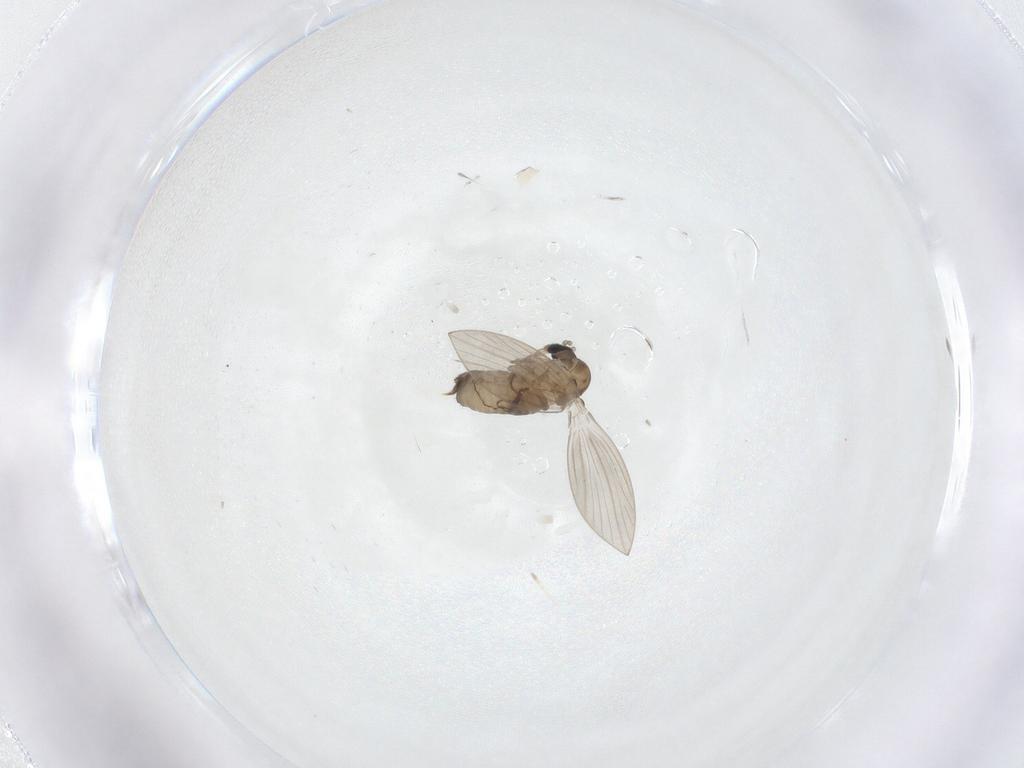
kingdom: Animalia
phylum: Arthropoda
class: Insecta
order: Diptera
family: Psychodidae
